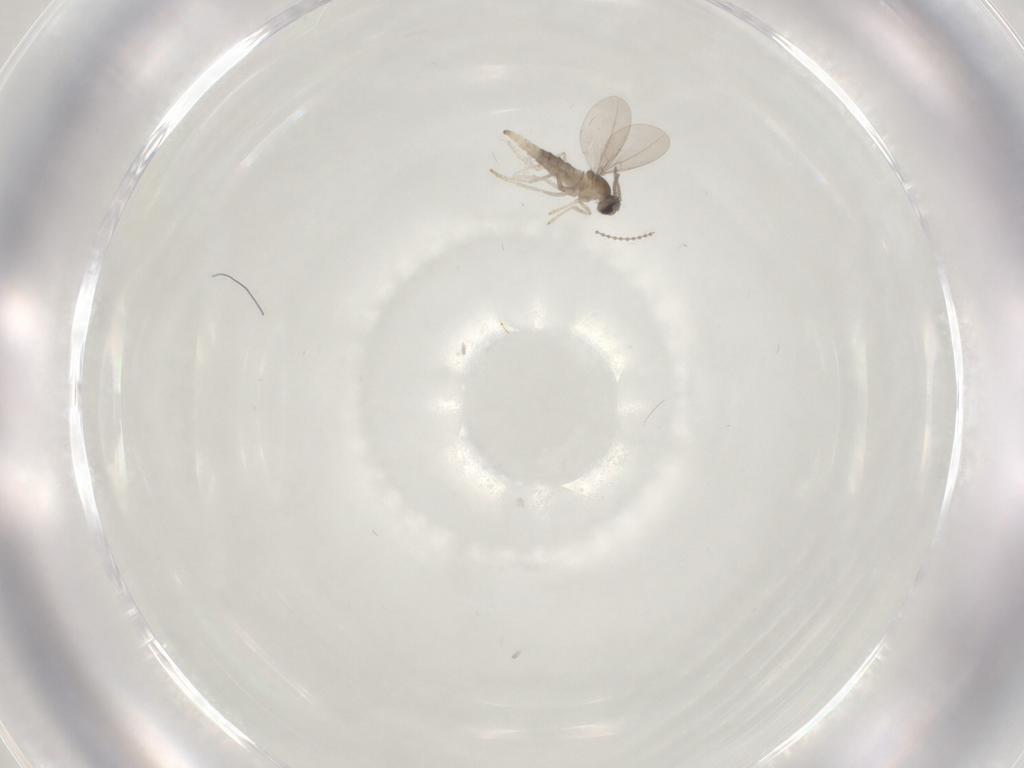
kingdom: Animalia
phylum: Arthropoda
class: Insecta
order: Diptera
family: Cecidomyiidae
